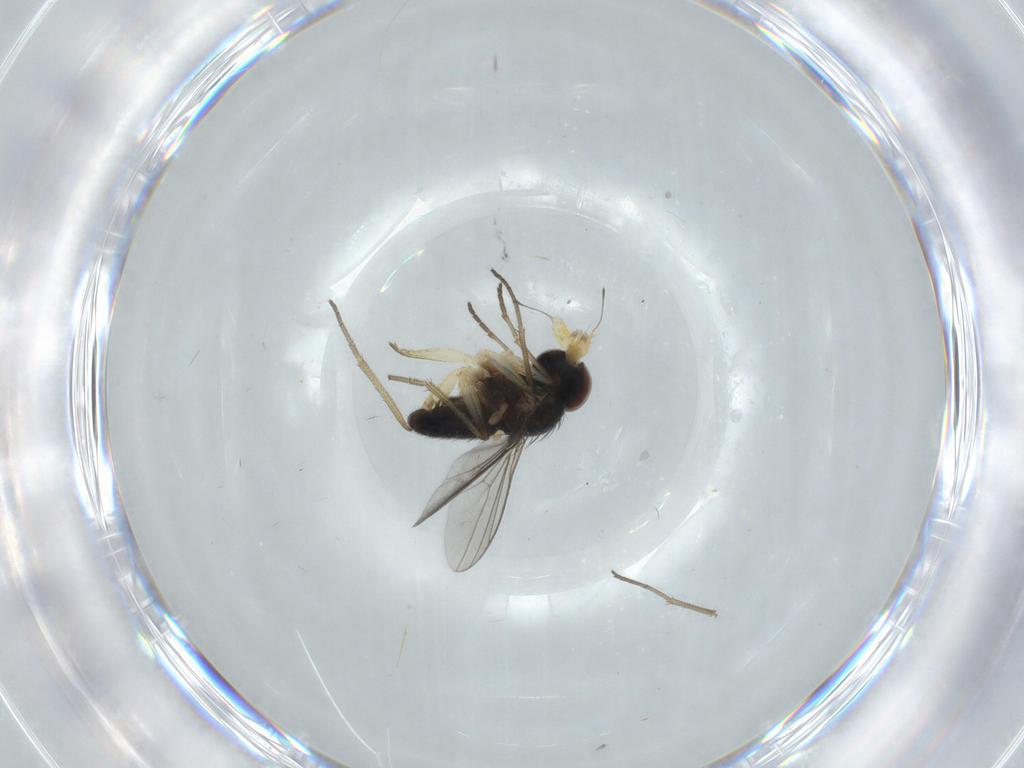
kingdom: Animalia
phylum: Arthropoda
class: Insecta
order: Diptera
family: Dolichopodidae
